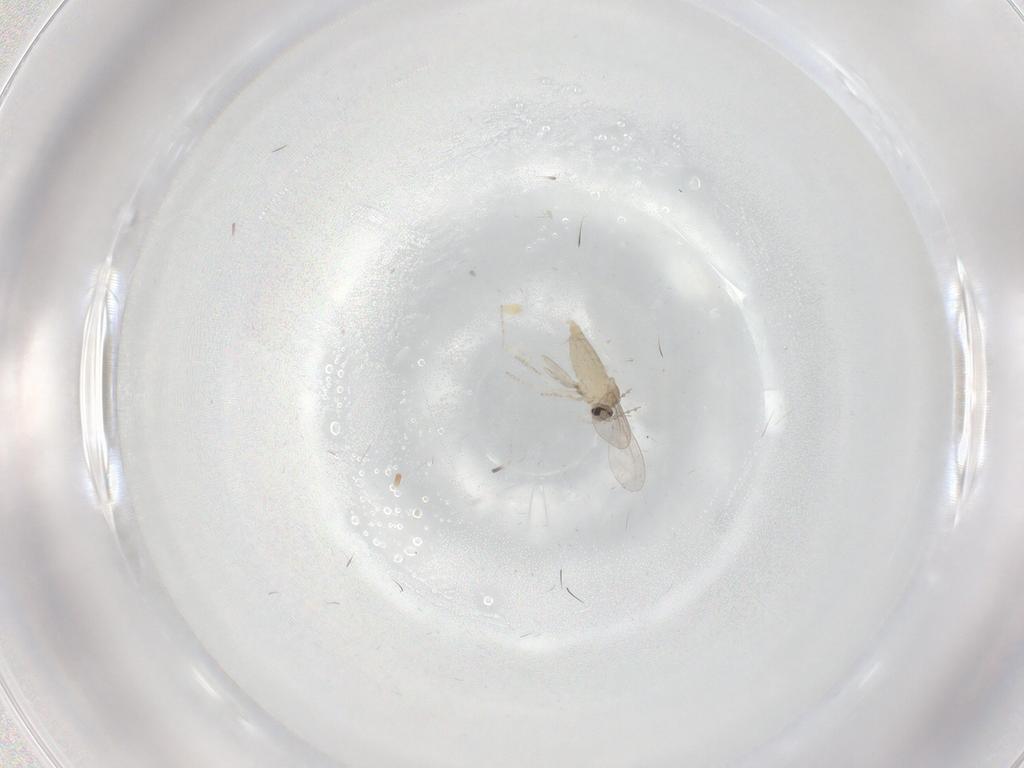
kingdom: Animalia
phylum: Arthropoda
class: Insecta
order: Diptera
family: Cecidomyiidae
